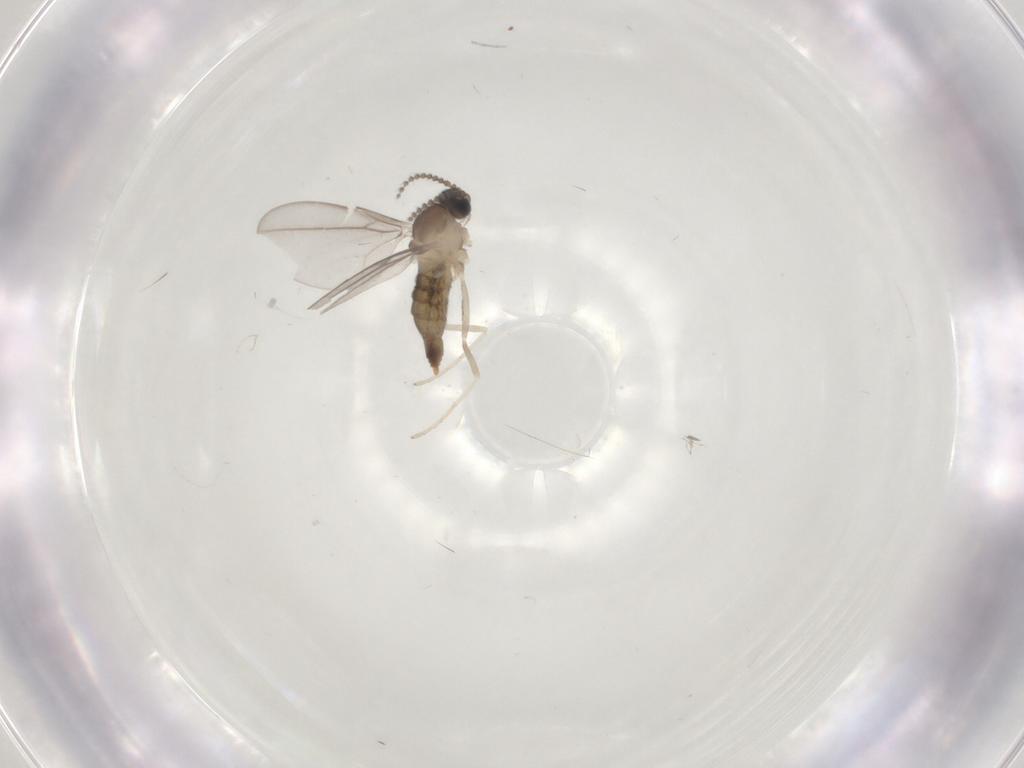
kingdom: Animalia
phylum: Arthropoda
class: Insecta
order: Diptera
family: Cecidomyiidae
